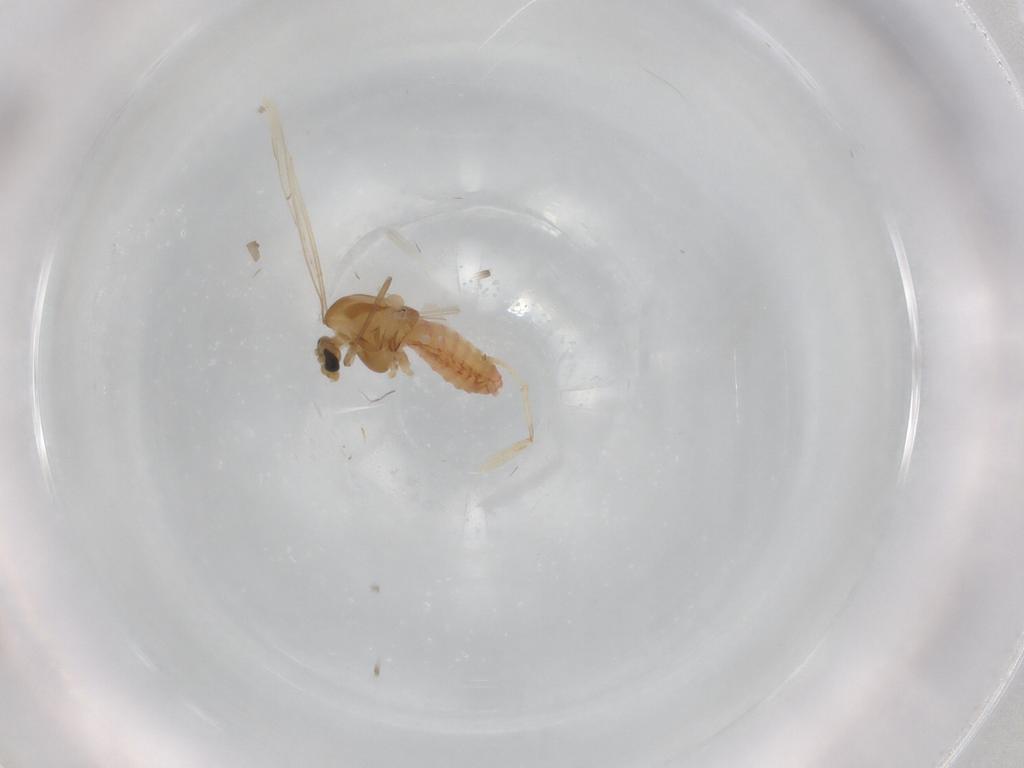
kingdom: Animalia
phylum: Arthropoda
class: Insecta
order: Diptera
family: Chironomidae
